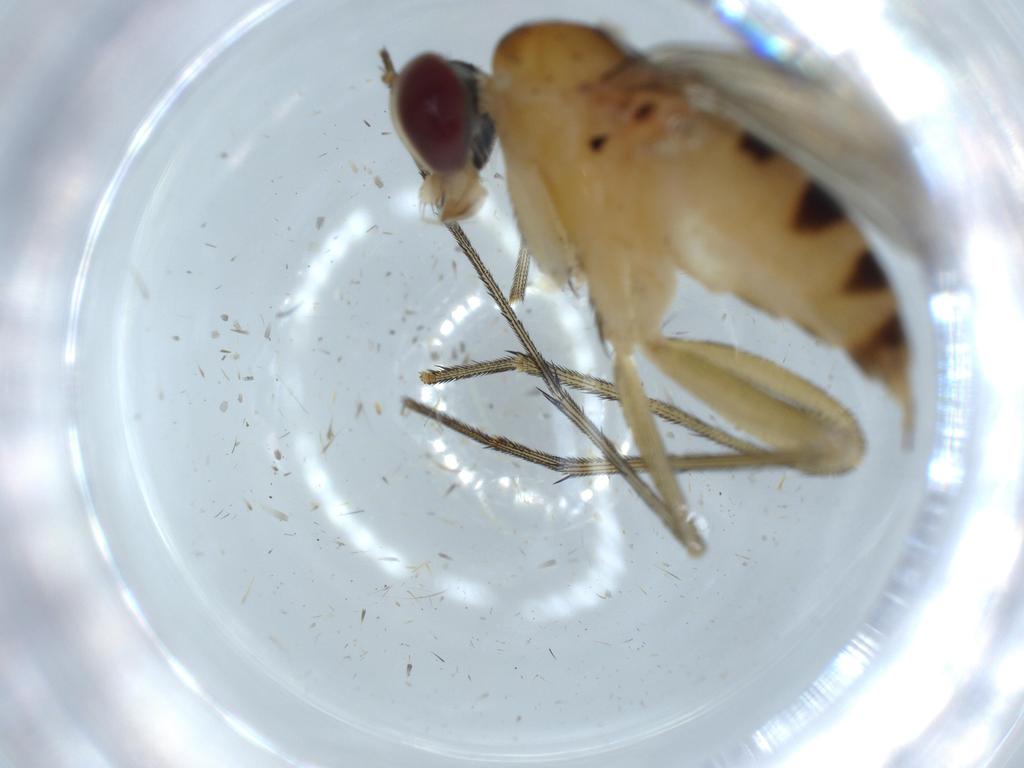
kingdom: Animalia
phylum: Arthropoda
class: Insecta
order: Diptera
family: Dolichopodidae
